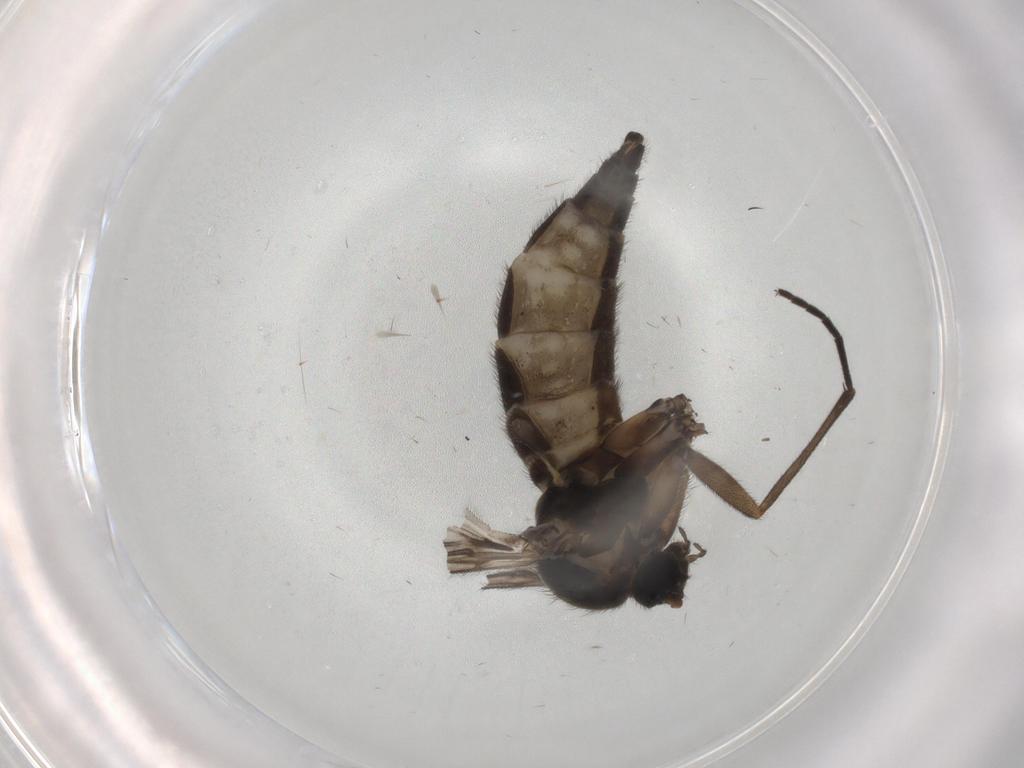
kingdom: Animalia
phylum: Arthropoda
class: Insecta
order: Diptera
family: Sciaridae
